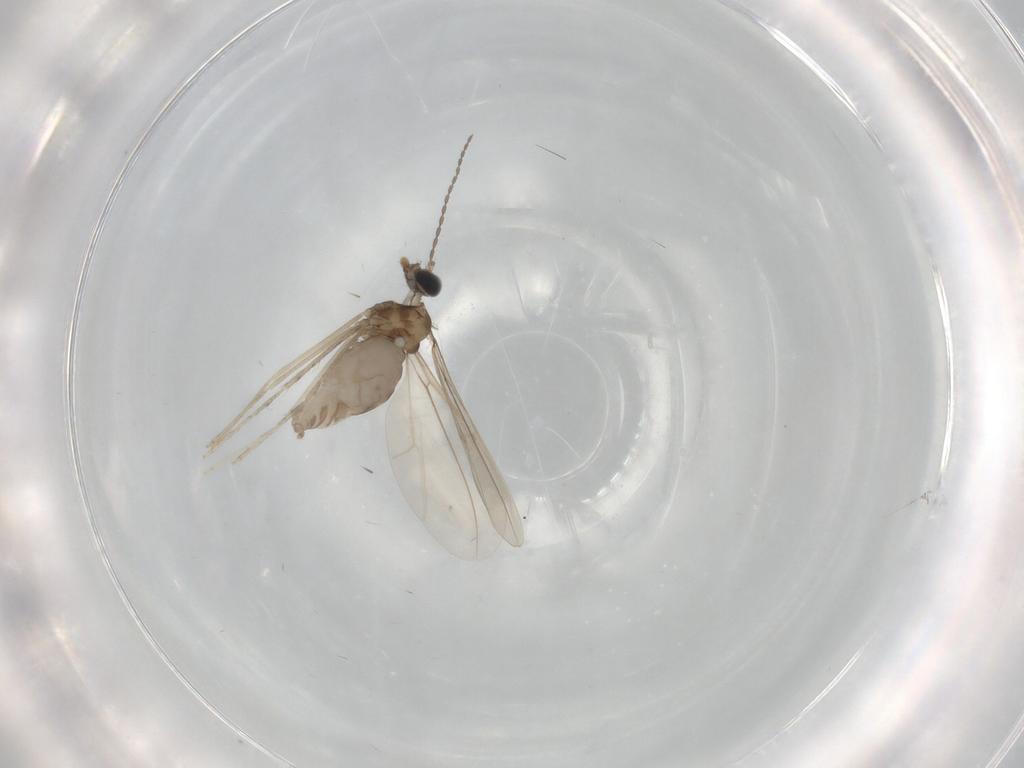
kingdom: Animalia
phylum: Arthropoda
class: Insecta
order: Diptera
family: Cecidomyiidae
